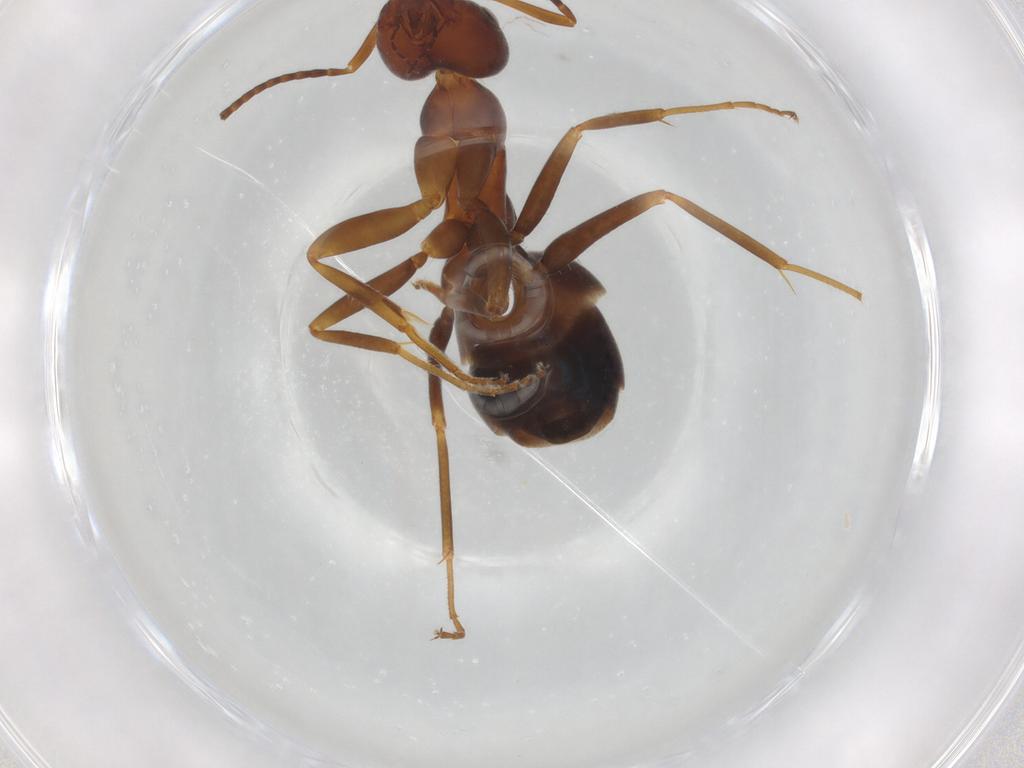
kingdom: Animalia
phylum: Arthropoda
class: Insecta
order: Hymenoptera
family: Formicidae
